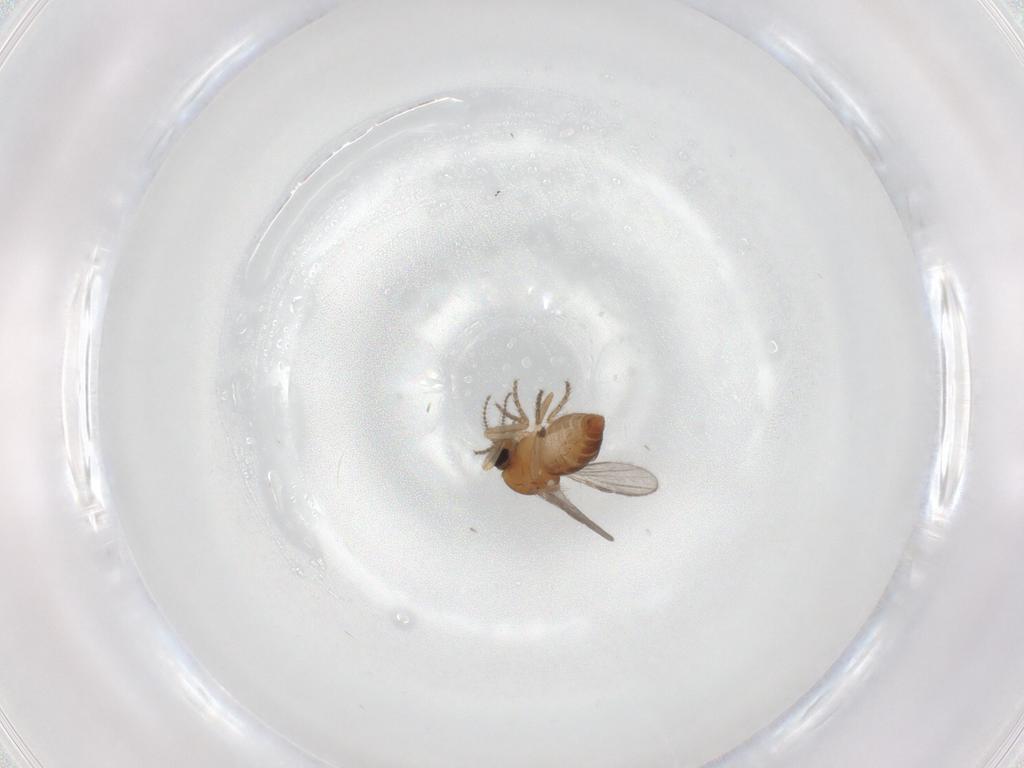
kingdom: Animalia
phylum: Arthropoda
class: Insecta
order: Diptera
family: Ceratopogonidae
